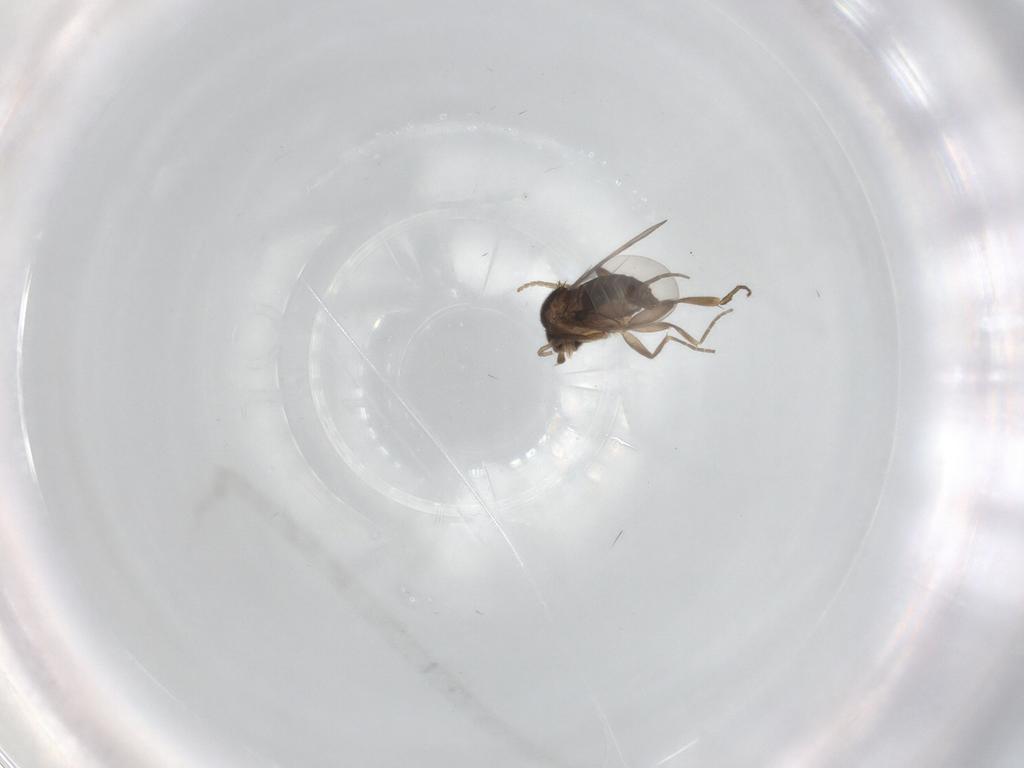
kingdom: Animalia
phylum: Arthropoda
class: Insecta
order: Diptera
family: Phoridae
